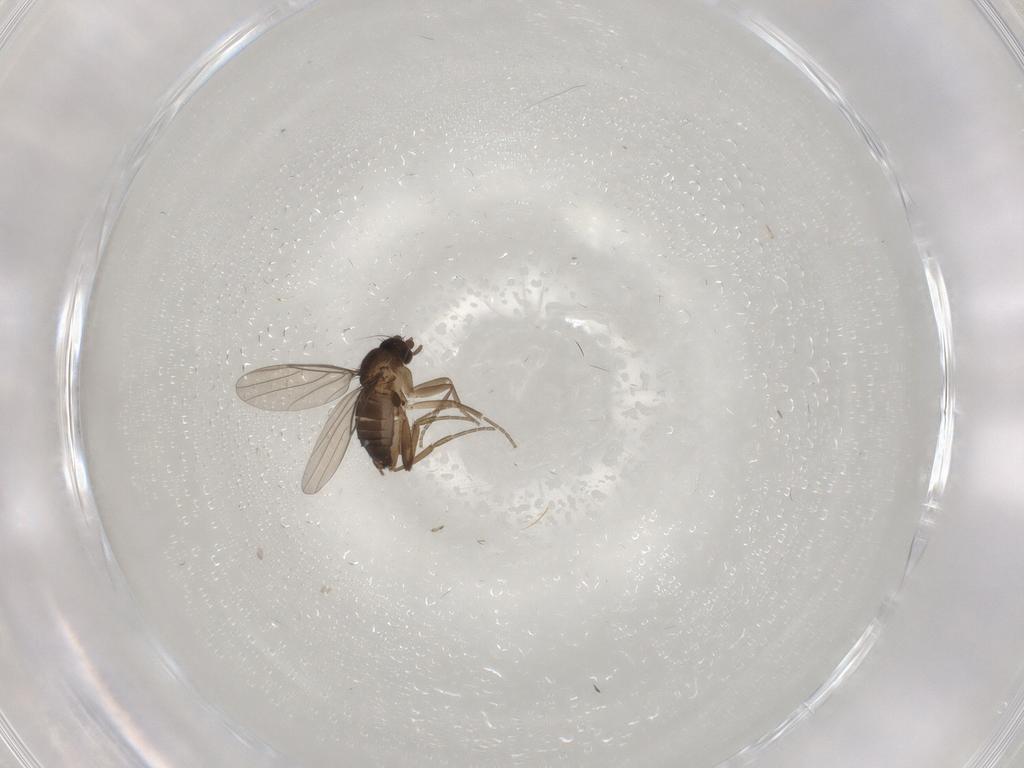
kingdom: Animalia
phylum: Arthropoda
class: Insecta
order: Diptera
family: Phoridae
